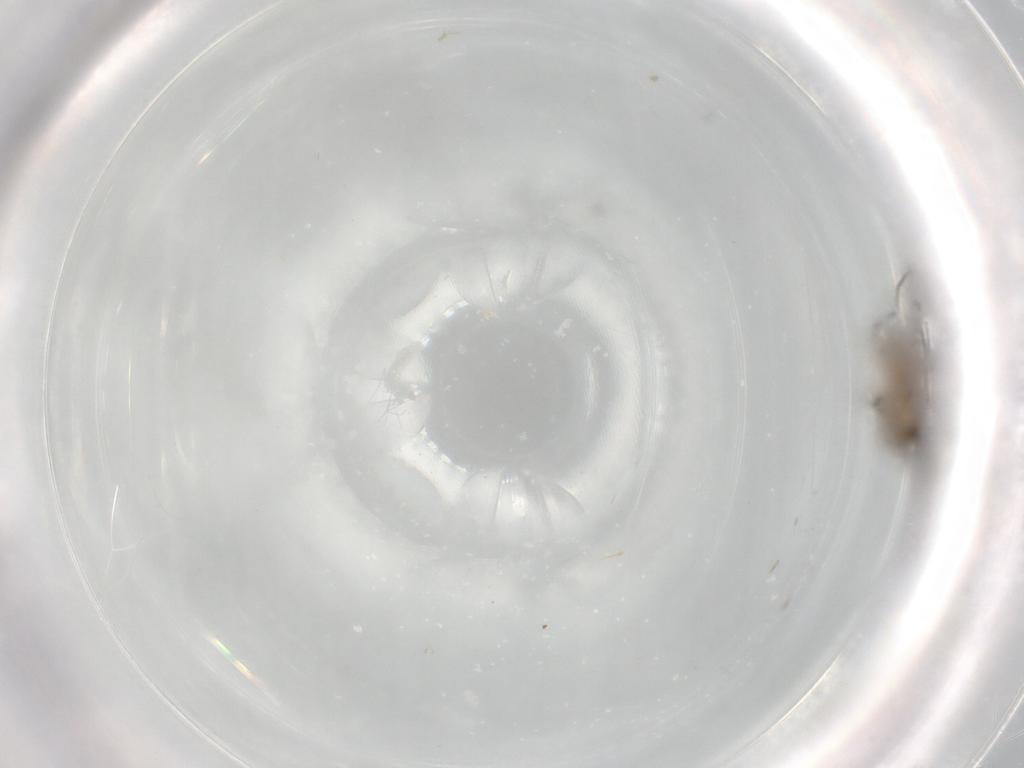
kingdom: Animalia
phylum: Arthropoda
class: Insecta
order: Diptera
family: Chironomidae
